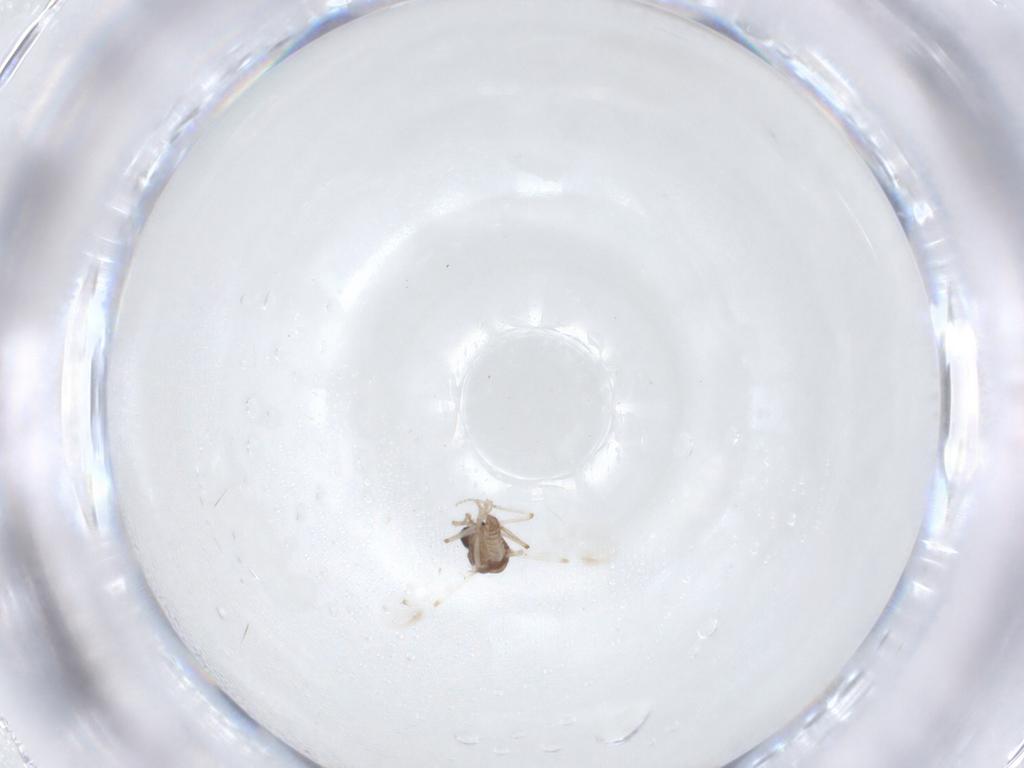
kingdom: Animalia
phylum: Arthropoda
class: Insecta
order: Diptera
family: Ceratopogonidae
